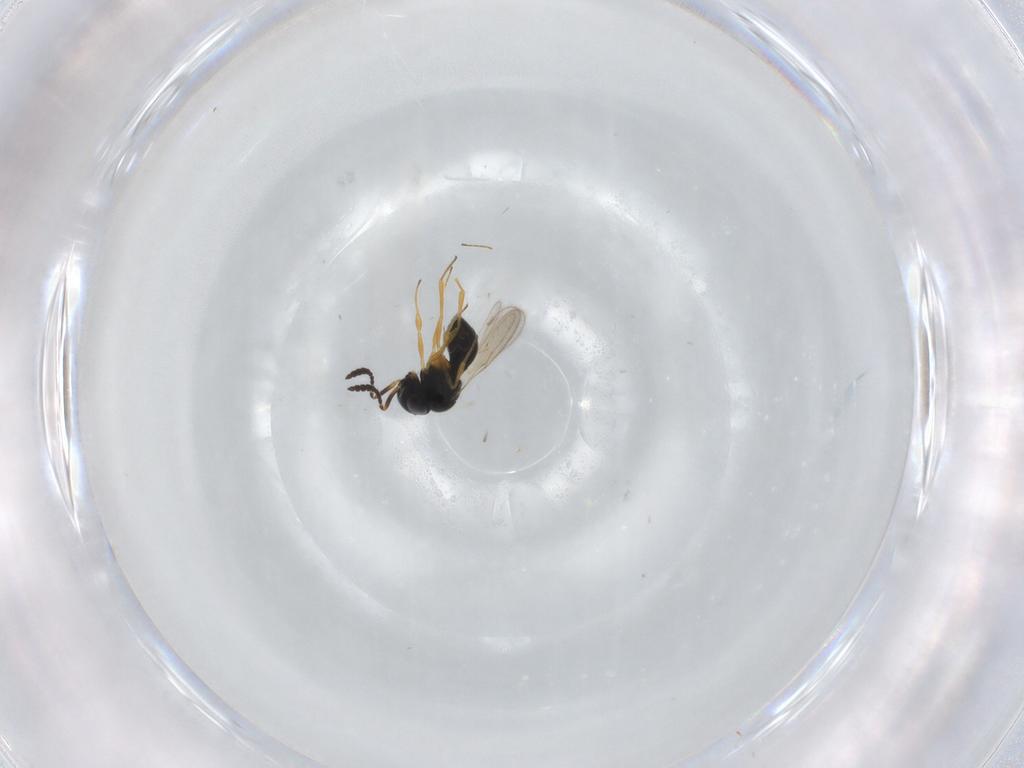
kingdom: Animalia
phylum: Arthropoda
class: Insecta
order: Hymenoptera
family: Scelionidae
